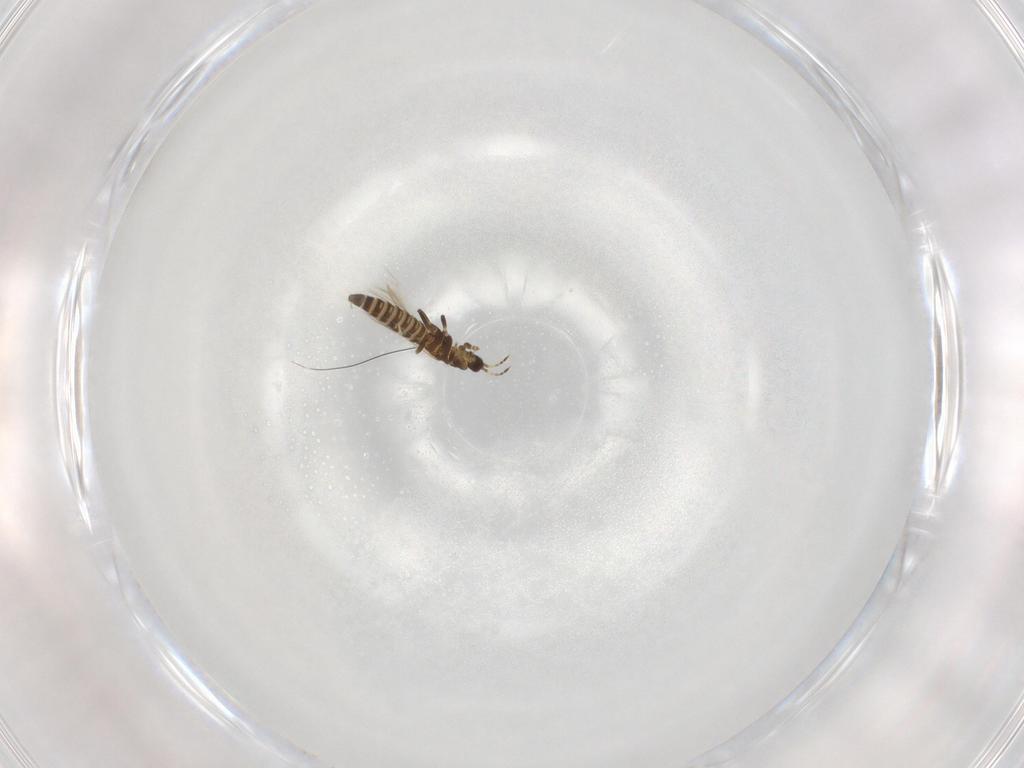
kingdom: Animalia
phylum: Arthropoda
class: Insecta
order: Thysanoptera
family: Thripidae
